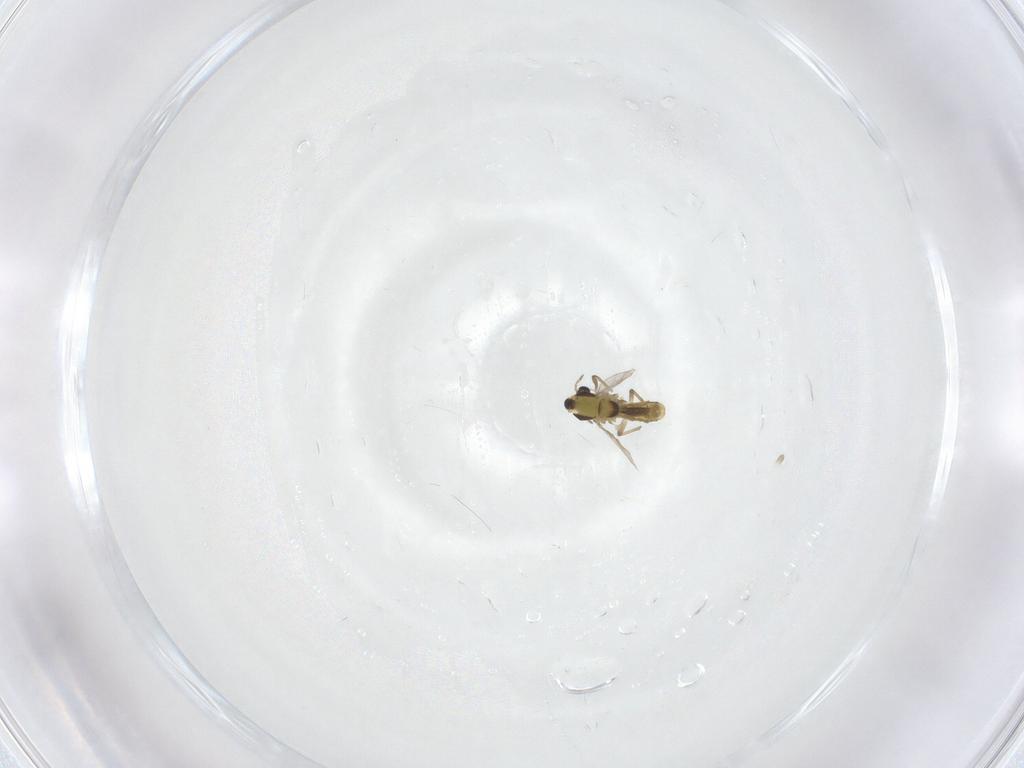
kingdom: Animalia
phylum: Arthropoda
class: Insecta
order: Diptera
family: Chironomidae
